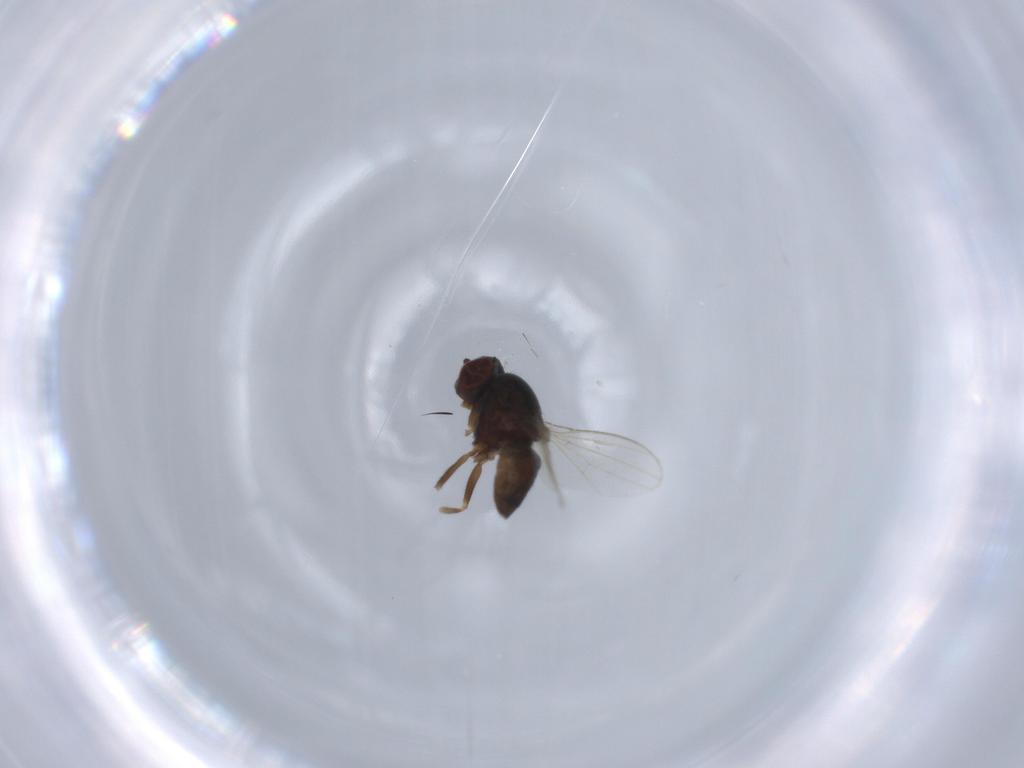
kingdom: Animalia
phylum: Arthropoda
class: Insecta
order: Diptera
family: Ephydridae
